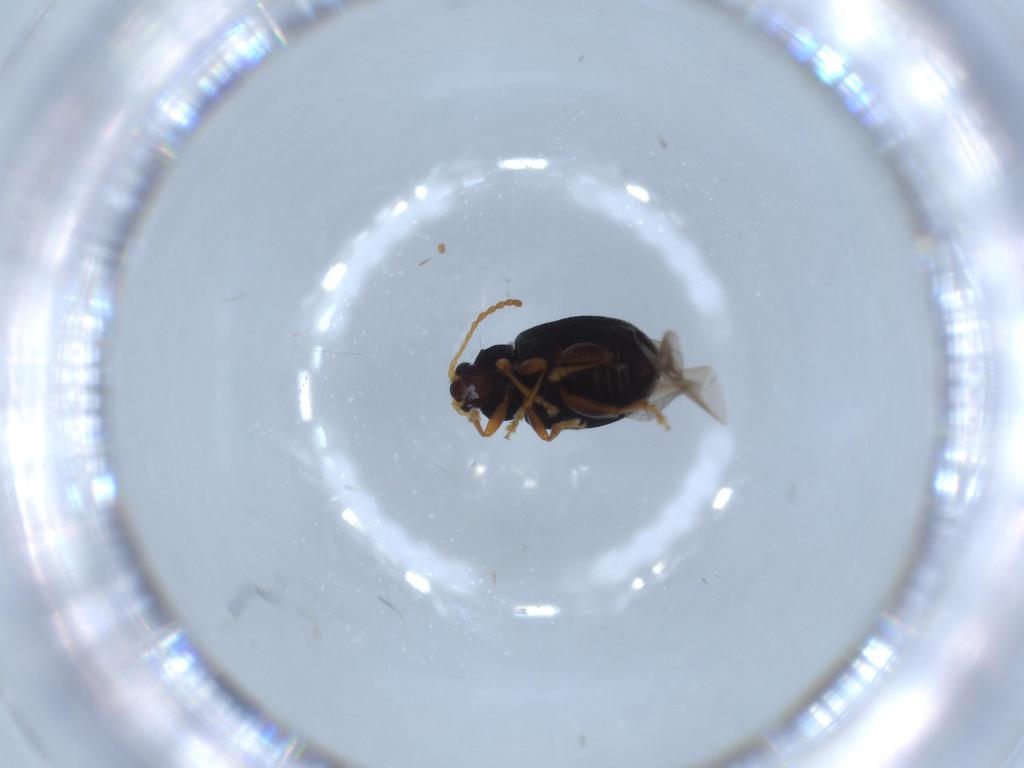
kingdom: Animalia
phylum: Arthropoda
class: Insecta
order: Coleoptera
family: Chrysomelidae
